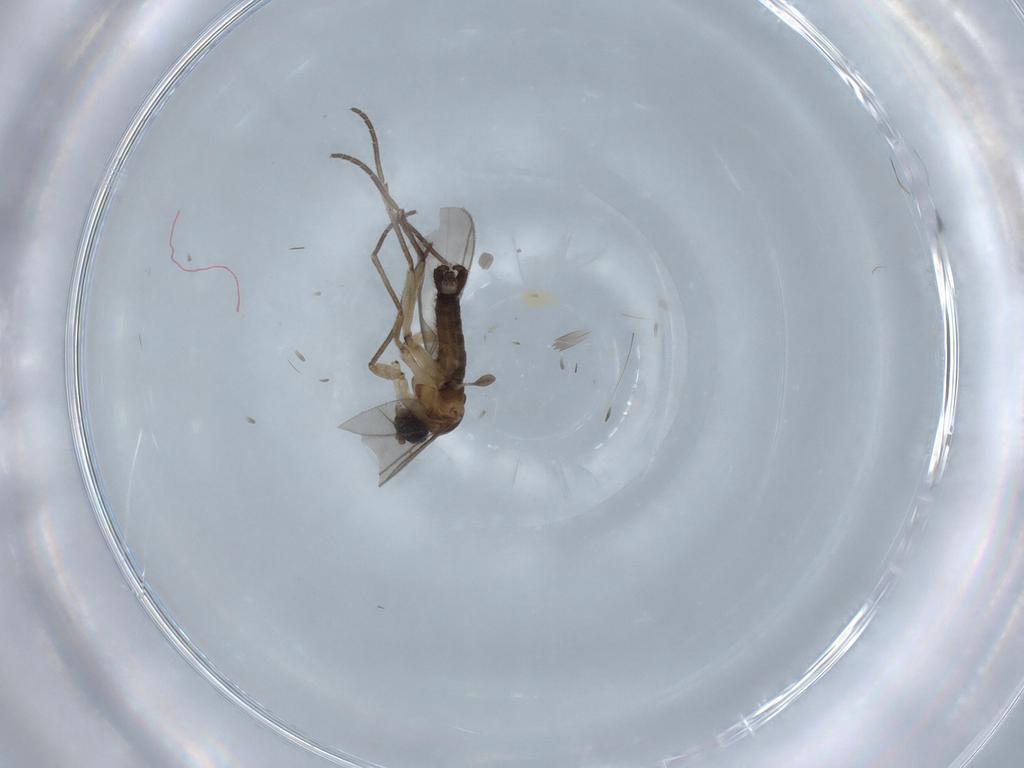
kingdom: Animalia
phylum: Arthropoda
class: Insecta
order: Diptera
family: Sciaridae
